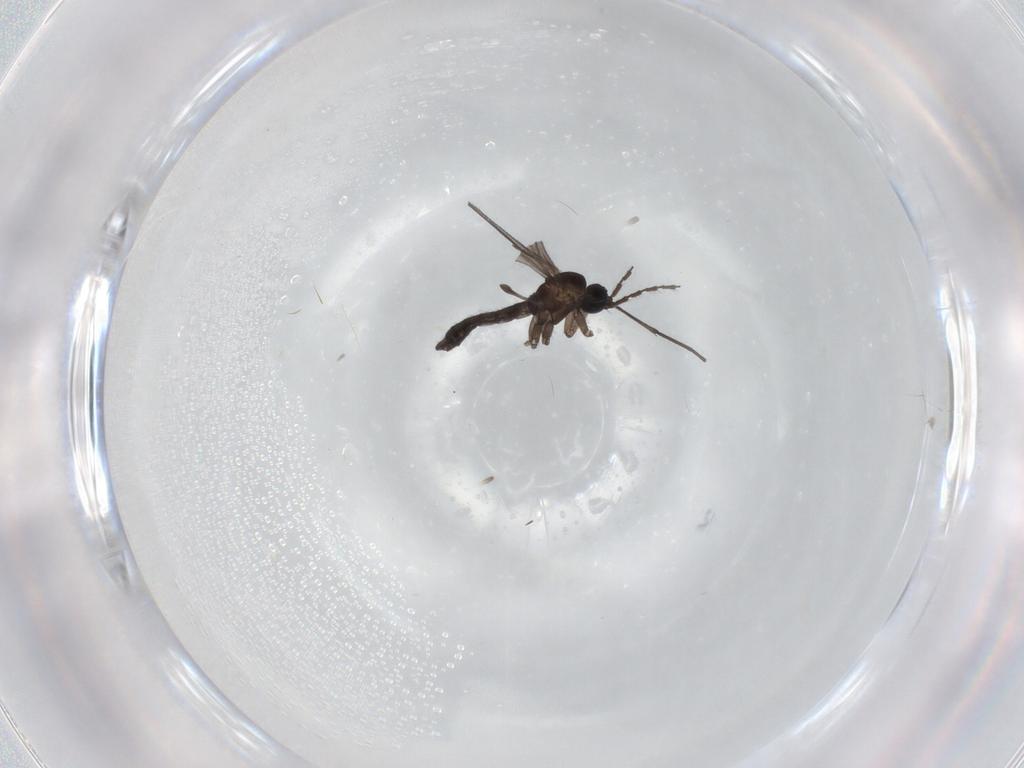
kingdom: Animalia
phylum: Arthropoda
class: Insecta
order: Diptera
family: Sciaridae
